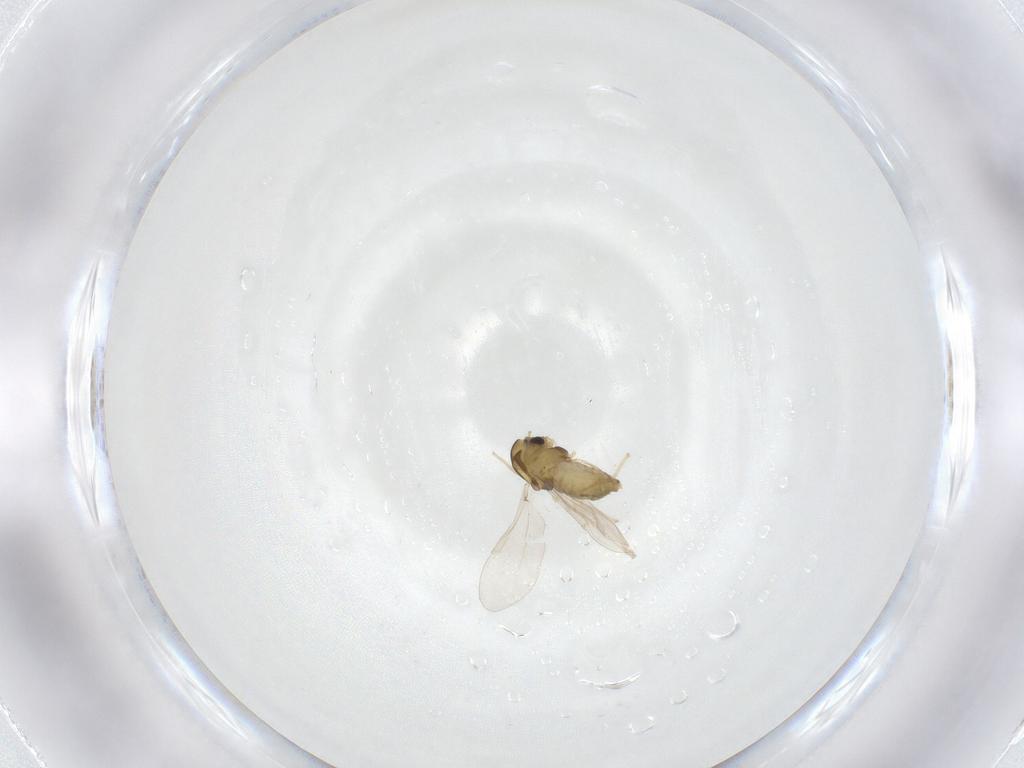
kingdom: Animalia
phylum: Arthropoda
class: Insecta
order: Diptera
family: Chironomidae
